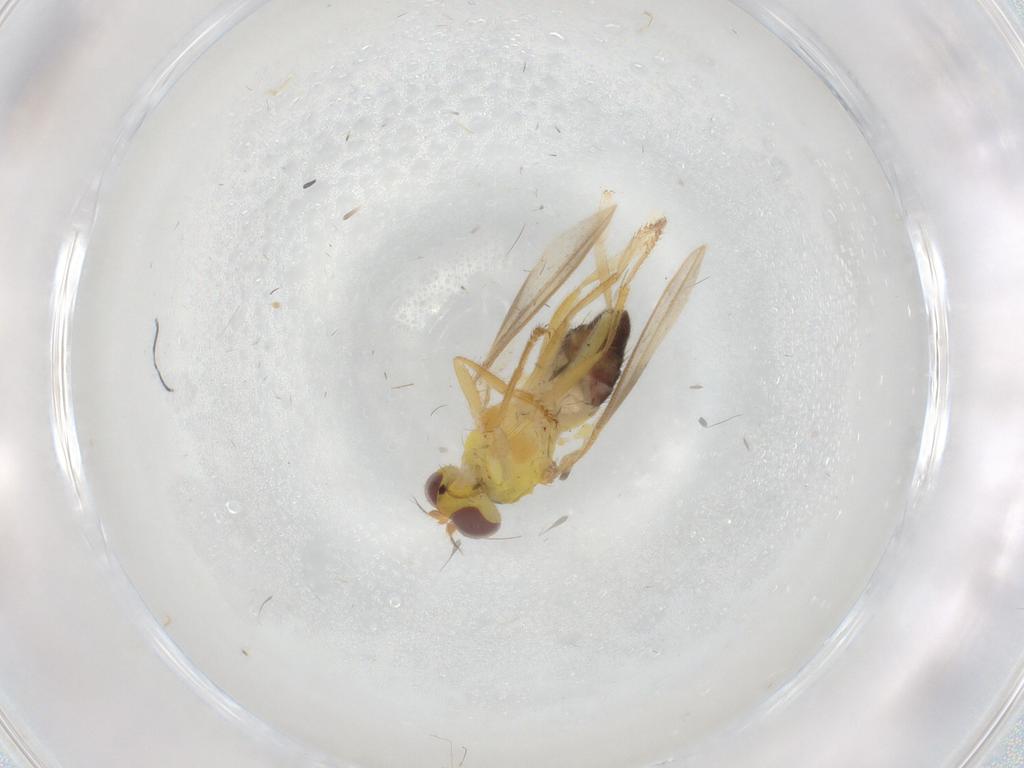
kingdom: Animalia
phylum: Arthropoda
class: Insecta
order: Diptera
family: Periscelididae
